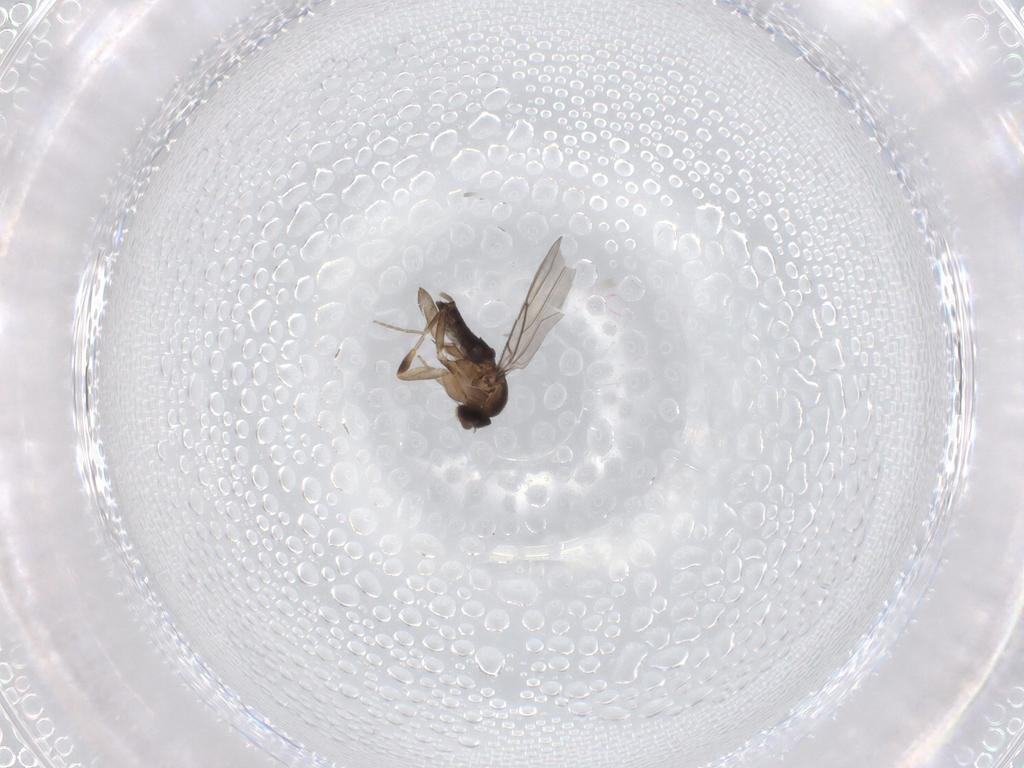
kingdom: Animalia
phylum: Arthropoda
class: Insecta
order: Diptera
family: Phoridae
